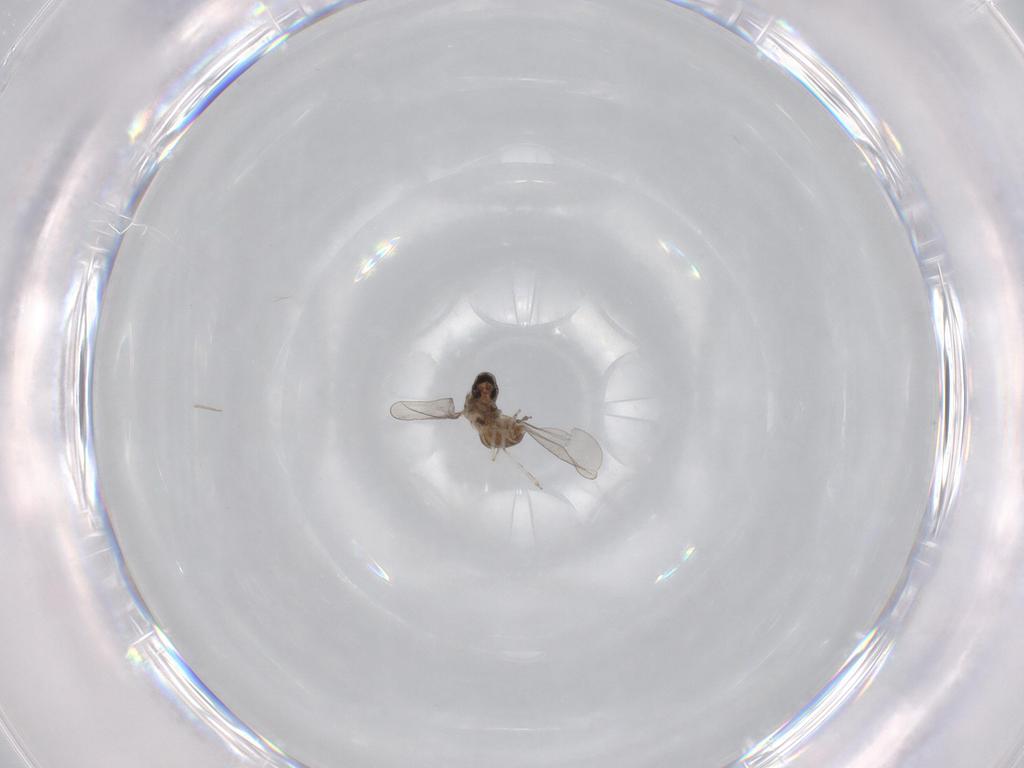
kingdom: Animalia
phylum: Arthropoda
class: Insecta
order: Diptera
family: Cecidomyiidae
